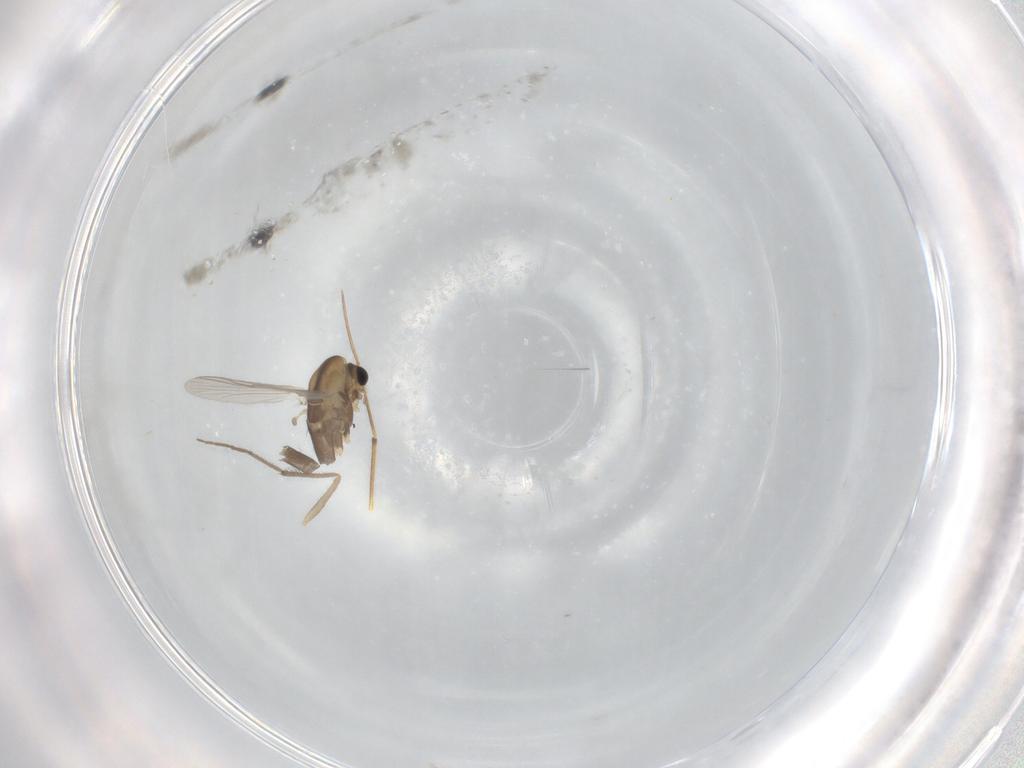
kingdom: Animalia
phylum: Arthropoda
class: Insecta
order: Diptera
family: Chironomidae
